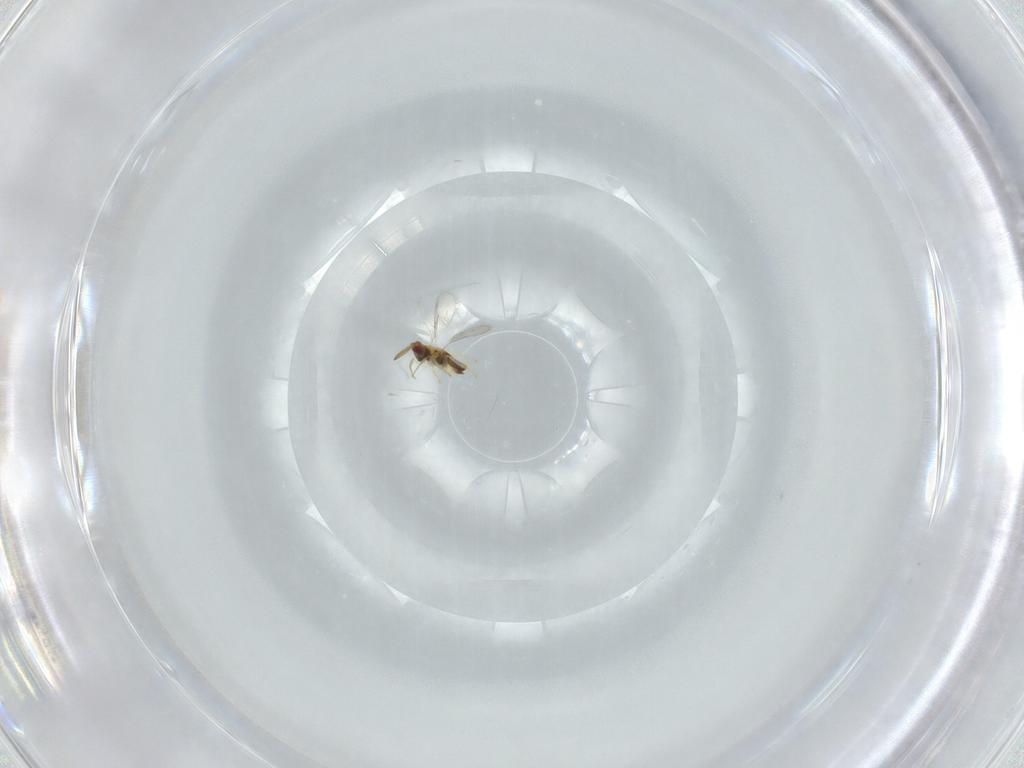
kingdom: Animalia
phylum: Arthropoda
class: Insecta
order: Hymenoptera
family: Aphelinidae
